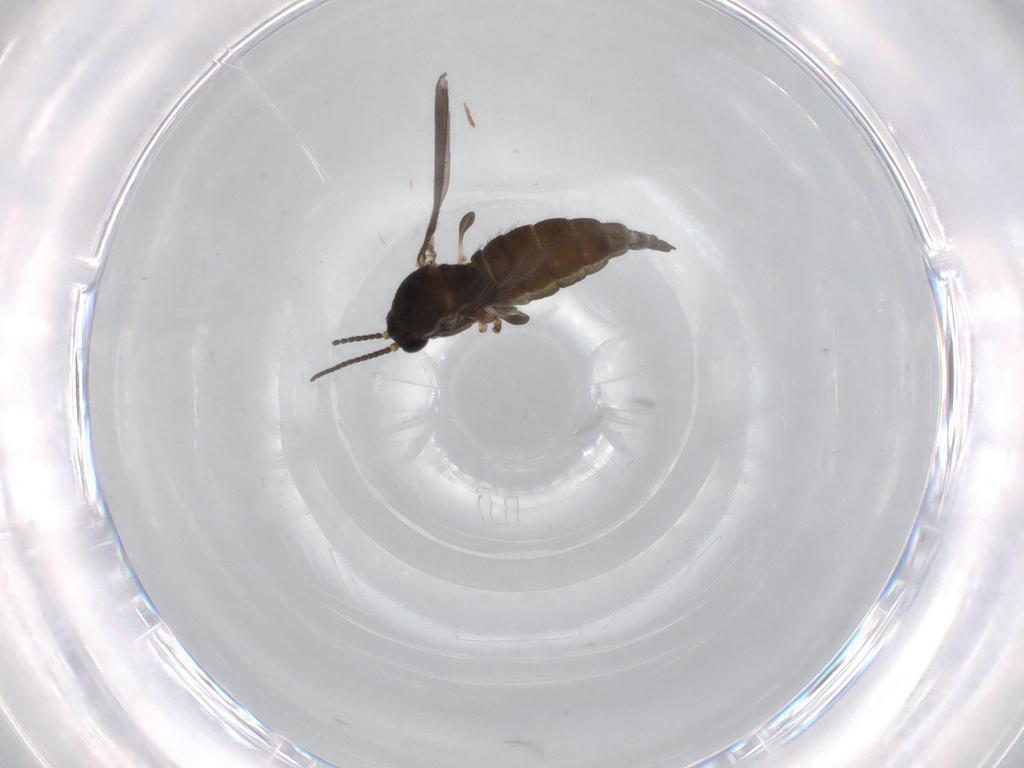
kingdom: Animalia
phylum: Arthropoda
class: Insecta
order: Diptera
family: Sciaridae
